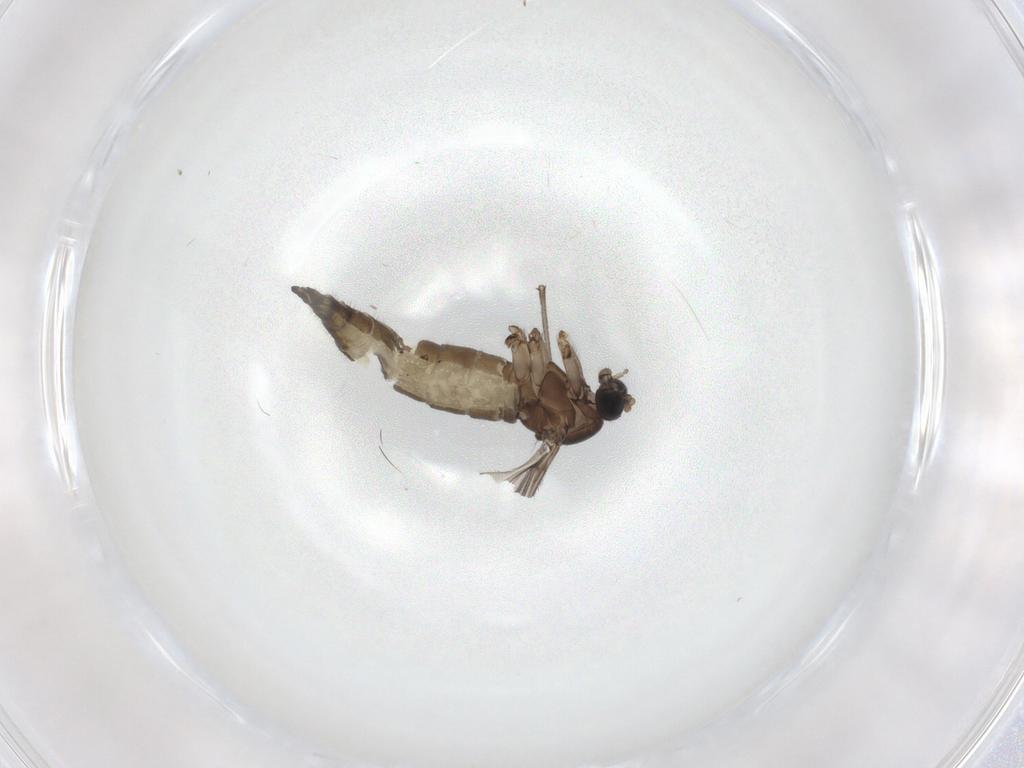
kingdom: Animalia
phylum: Arthropoda
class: Insecta
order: Diptera
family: Sciaridae
